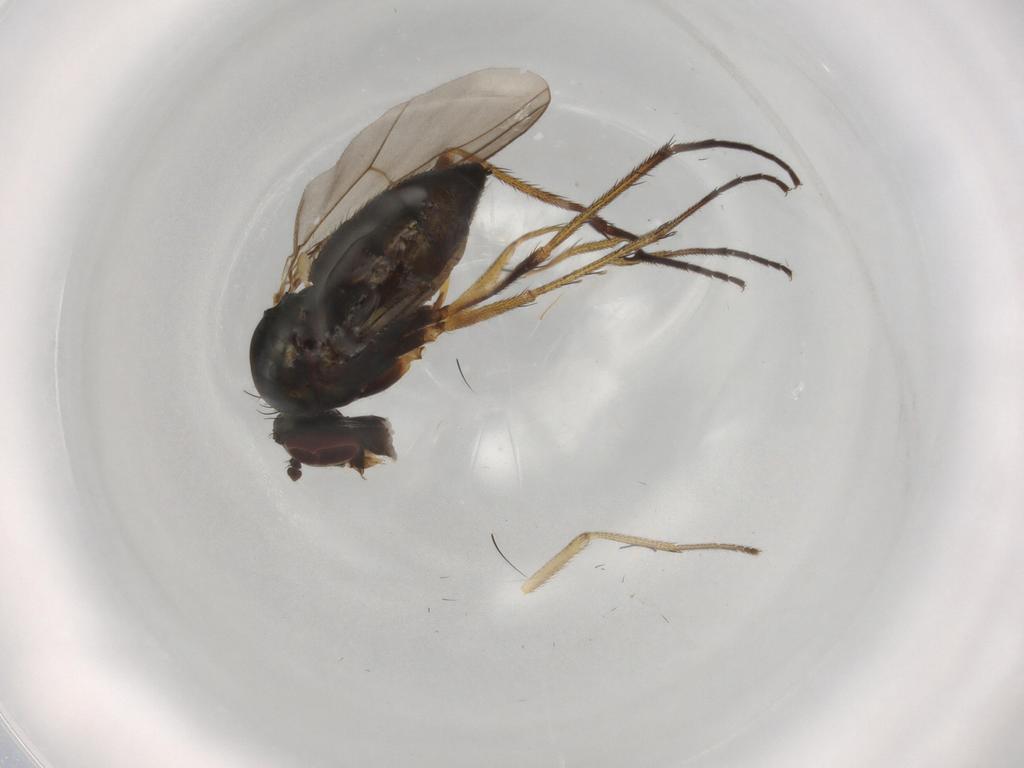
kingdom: Animalia
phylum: Arthropoda
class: Insecta
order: Diptera
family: Dolichopodidae
